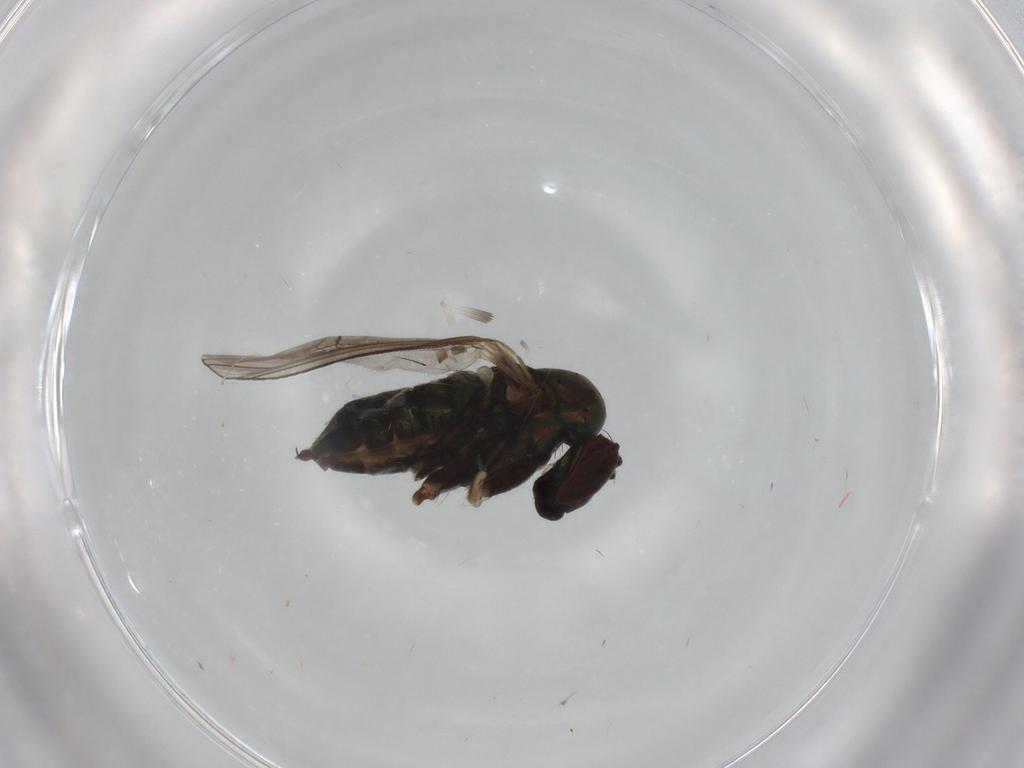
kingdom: Animalia
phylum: Arthropoda
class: Insecta
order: Diptera
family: Dolichopodidae
